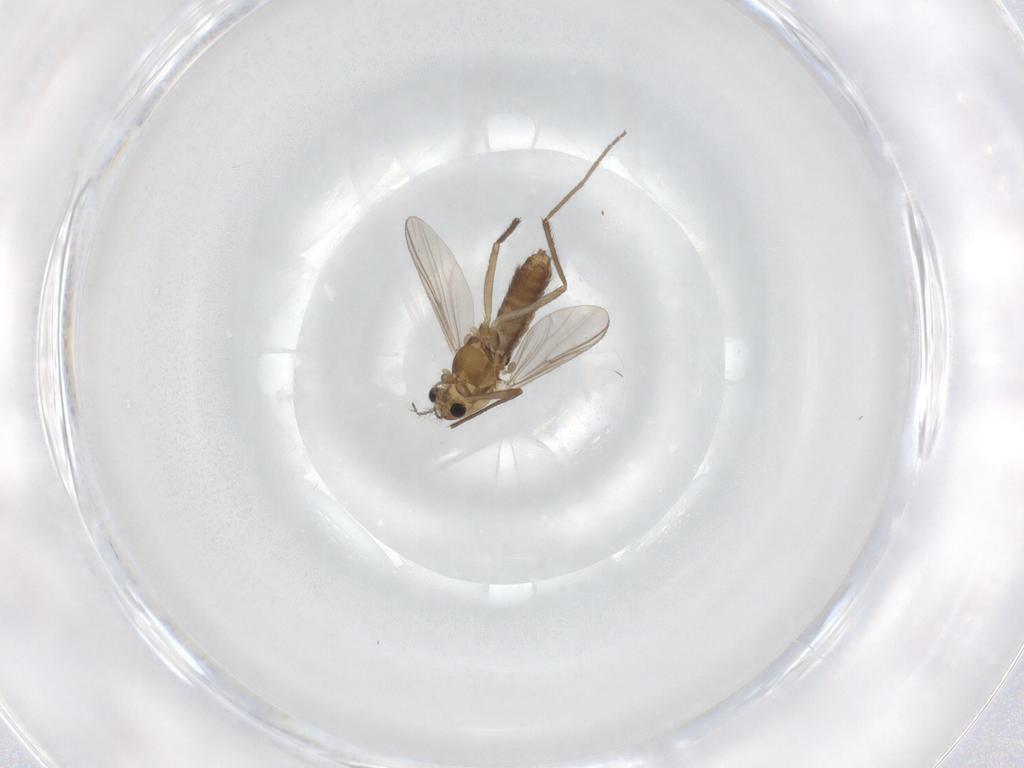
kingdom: Animalia
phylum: Arthropoda
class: Insecta
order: Diptera
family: Chironomidae
